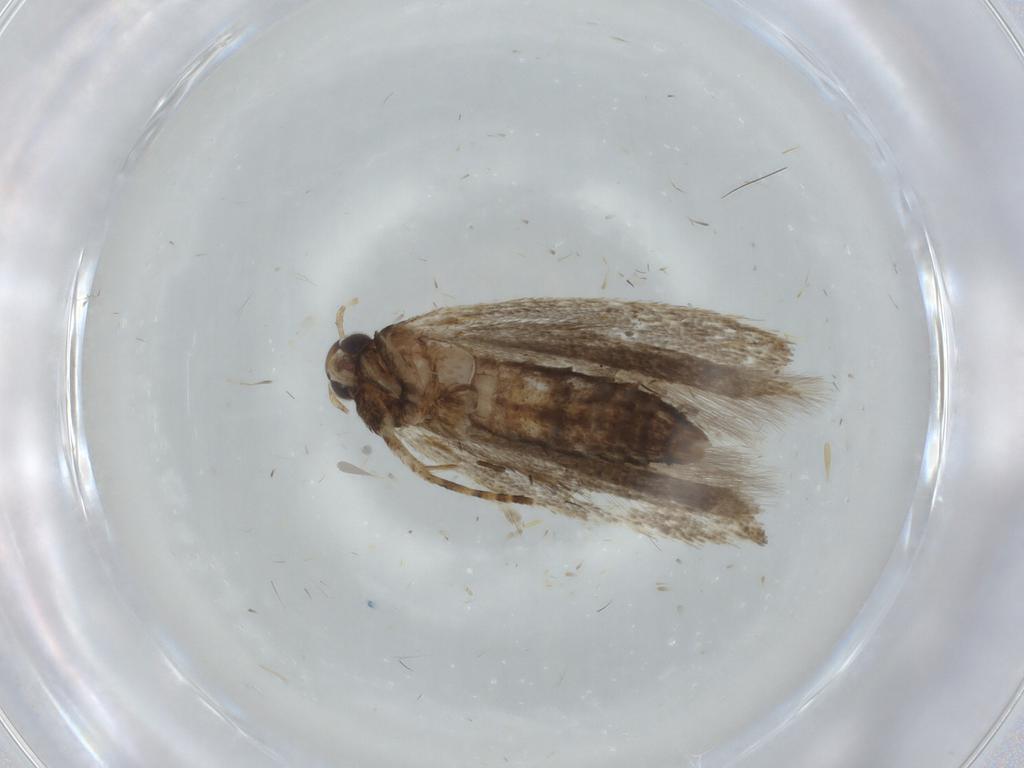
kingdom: Animalia
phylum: Arthropoda
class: Insecta
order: Lepidoptera
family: Gelechiidae
